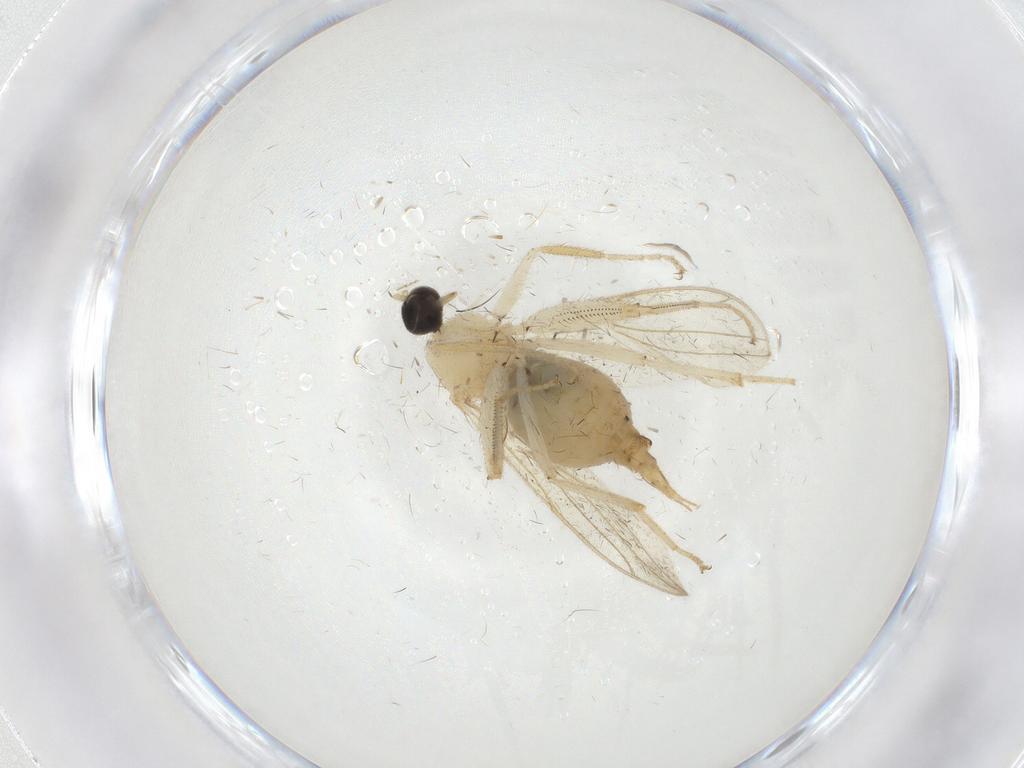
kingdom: Animalia
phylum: Arthropoda
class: Insecta
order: Diptera
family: Hybotidae
